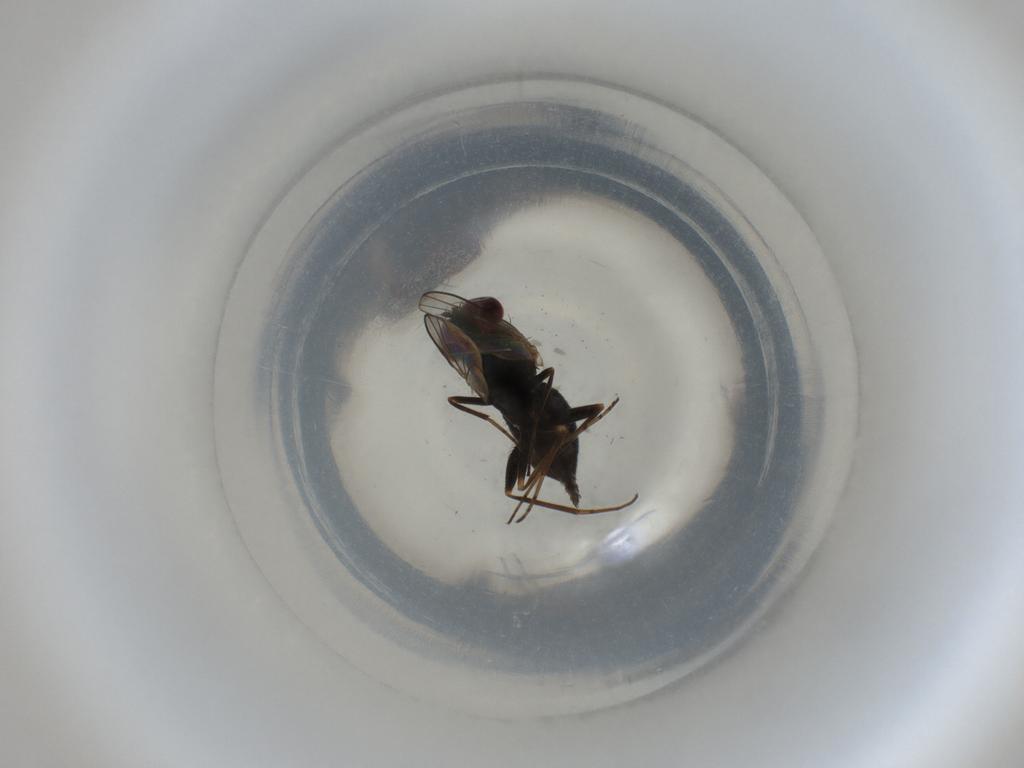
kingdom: Animalia
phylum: Arthropoda
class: Insecta
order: Diptera
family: Dolichopodidae
